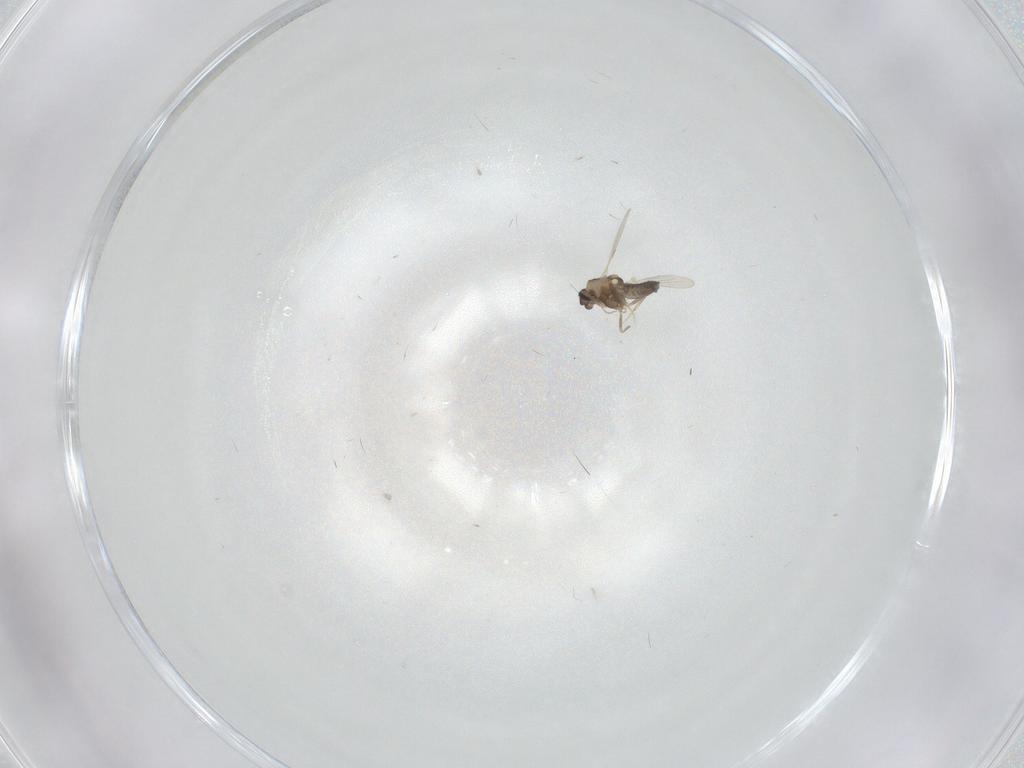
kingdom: Animalia
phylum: Arthropoda
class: Insecta
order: Diptera
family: Ceratopogonidae
